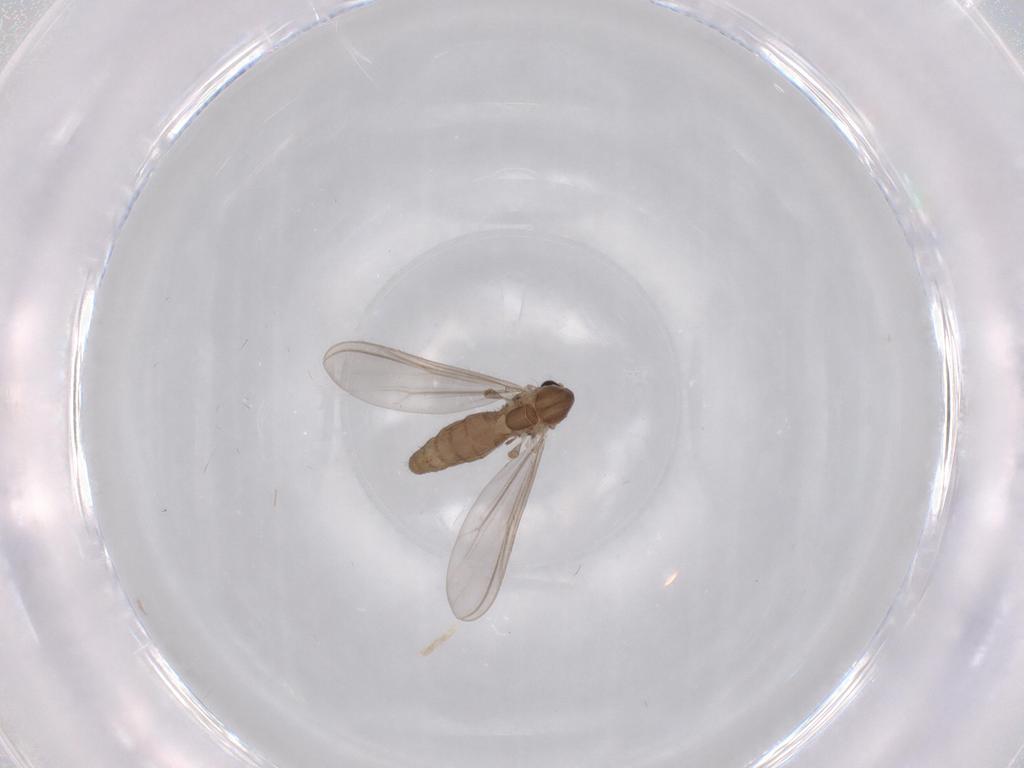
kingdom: Animalia
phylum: Arthropoda
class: Insecta
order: Diptera
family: Chironomidae
